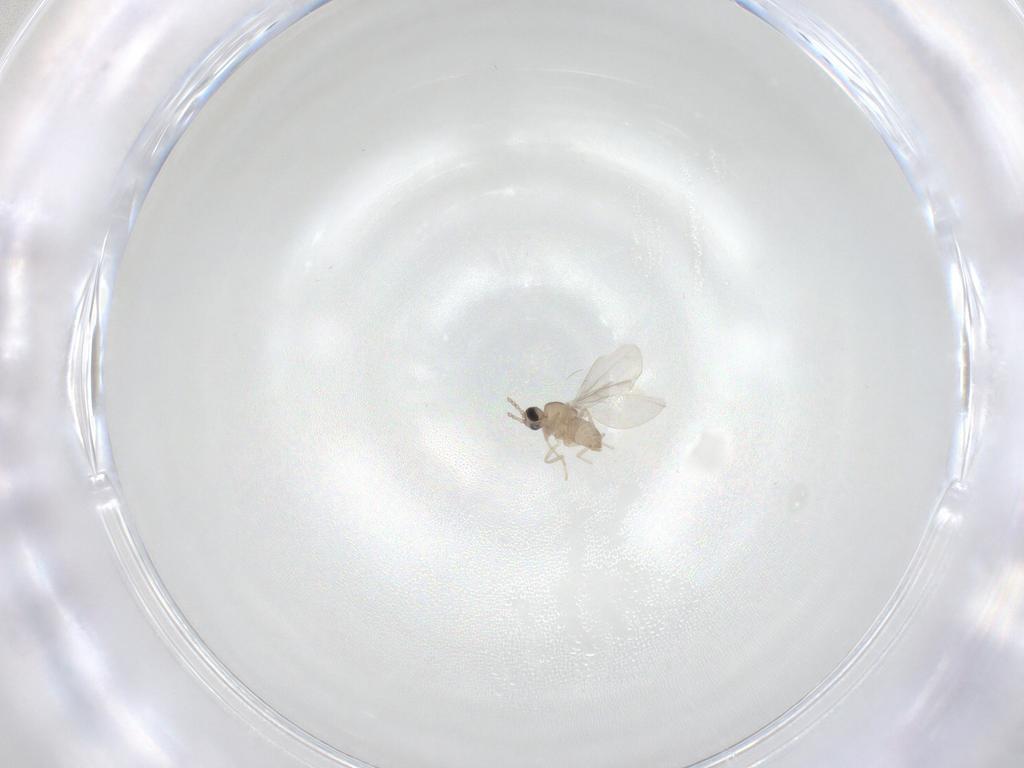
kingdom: Animalia
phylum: Arthropoda
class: Insecta
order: Diptera
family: Cecidomyiidae
